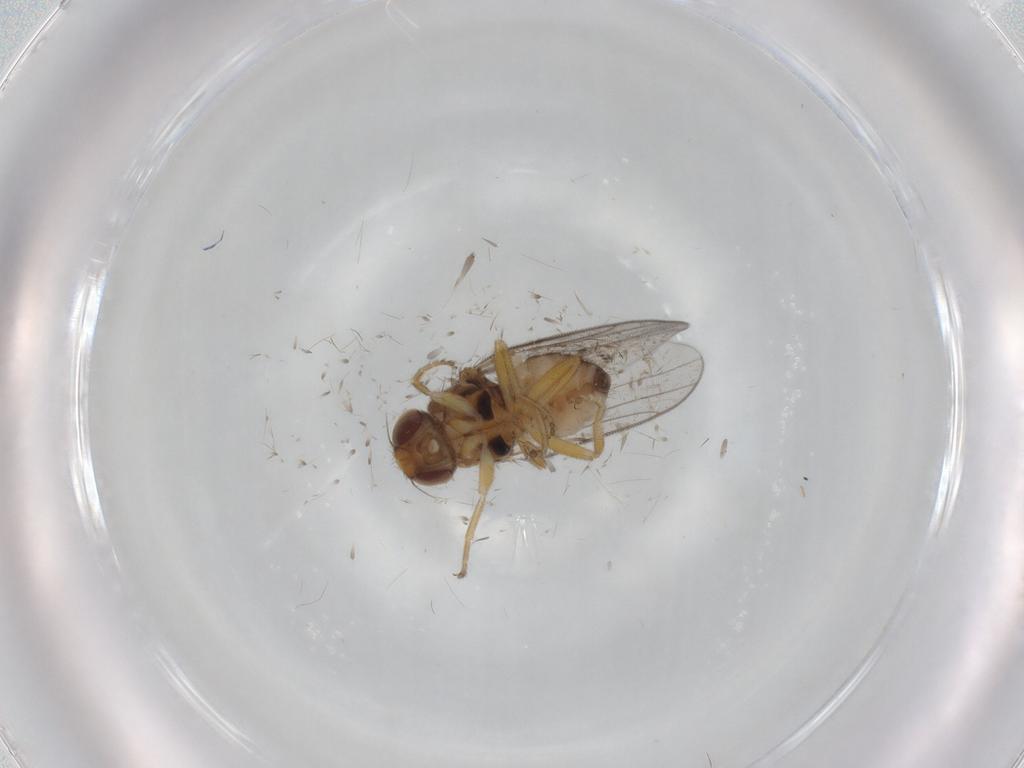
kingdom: Animalia
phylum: Arthropoda
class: Insecta
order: Diptera
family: Chloropidae
